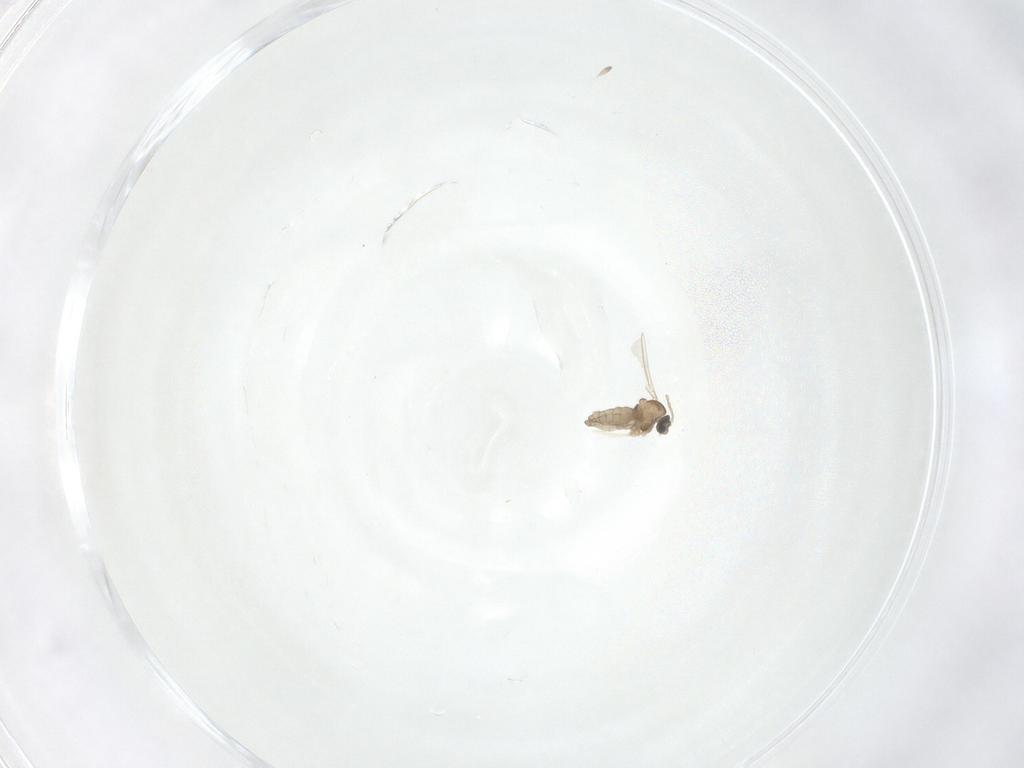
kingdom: Animalia
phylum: Arthropoda
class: Insecta
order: Diptera
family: Cecidomyiidae
